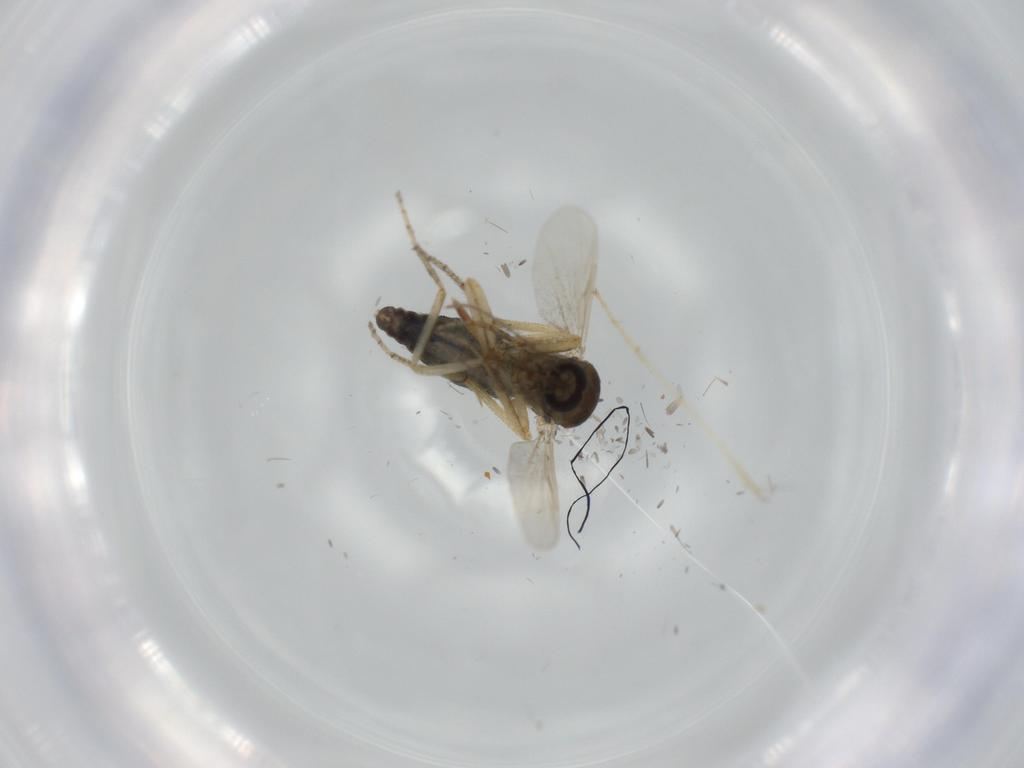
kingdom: Animalia
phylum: Arthropoda
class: Insecta
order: Diptera
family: Ceratopogonidae
